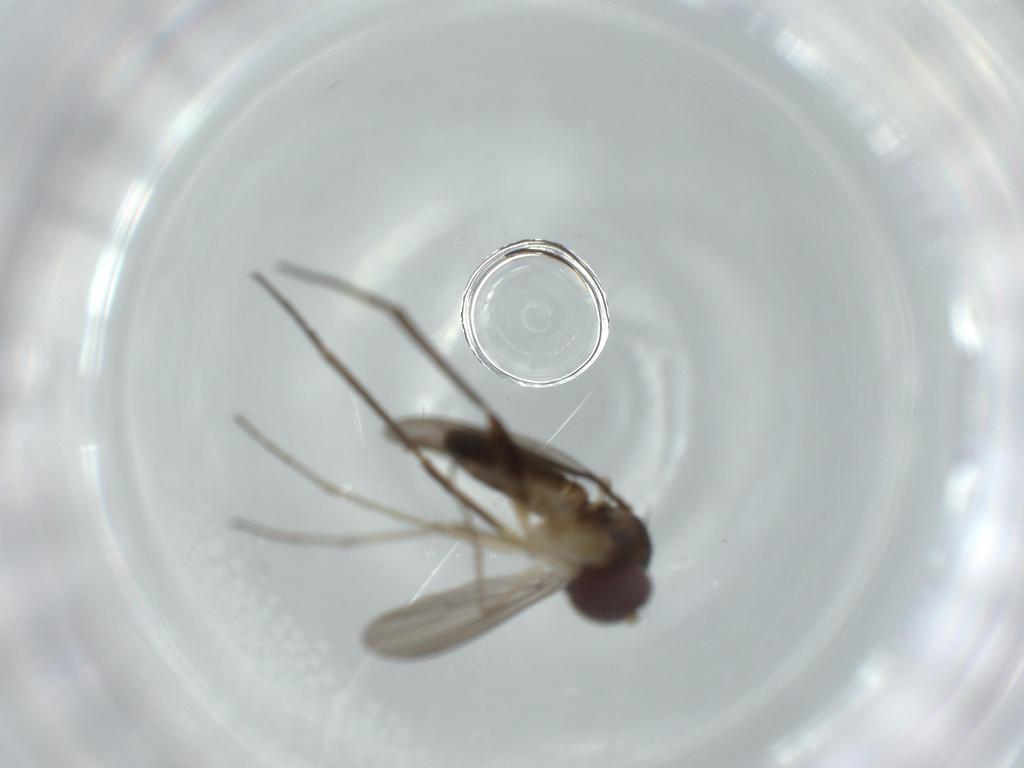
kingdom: Animalia
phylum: Arthropoda
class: Insecta
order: Diptera
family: Dolichopodidae
